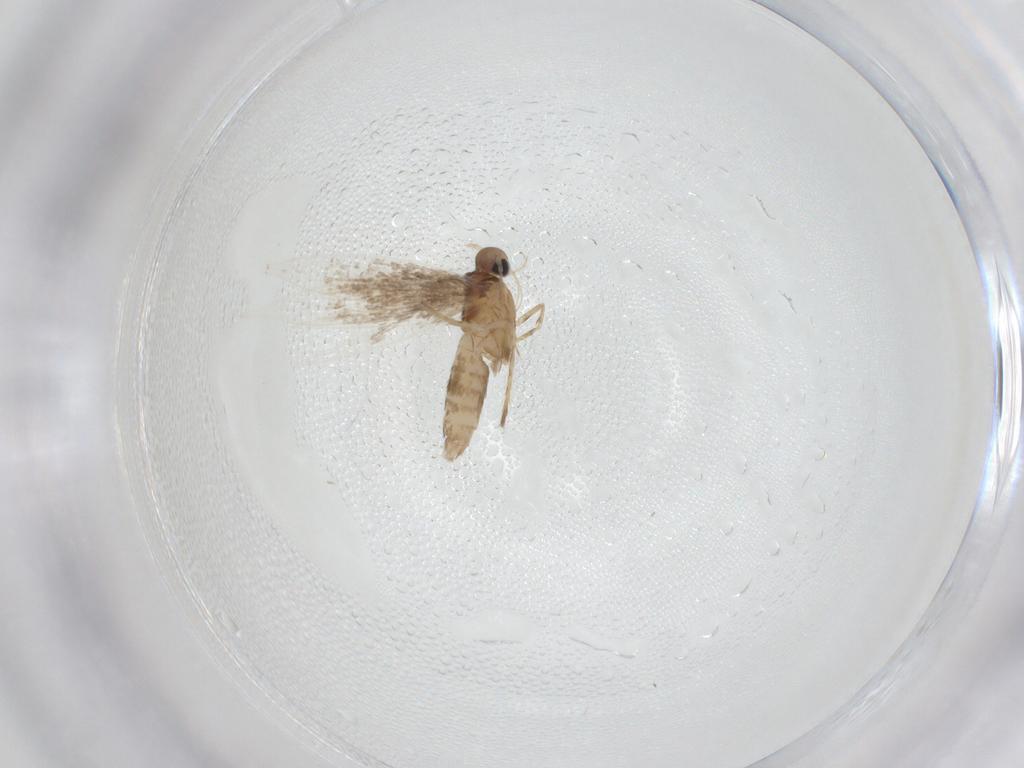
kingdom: Animalia
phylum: Arthropoda
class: Insecta
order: Lepidoptera
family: Tortricidae
